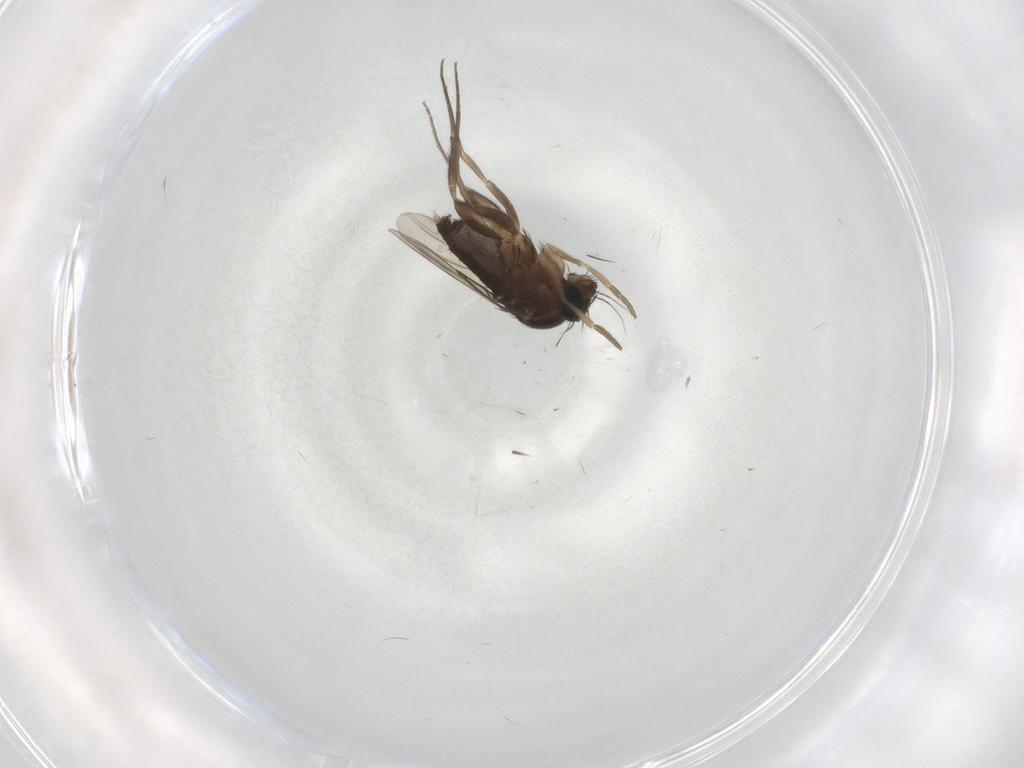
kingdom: Animalia
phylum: Arthropoda
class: Insecta
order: Diptera
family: Phoridae
